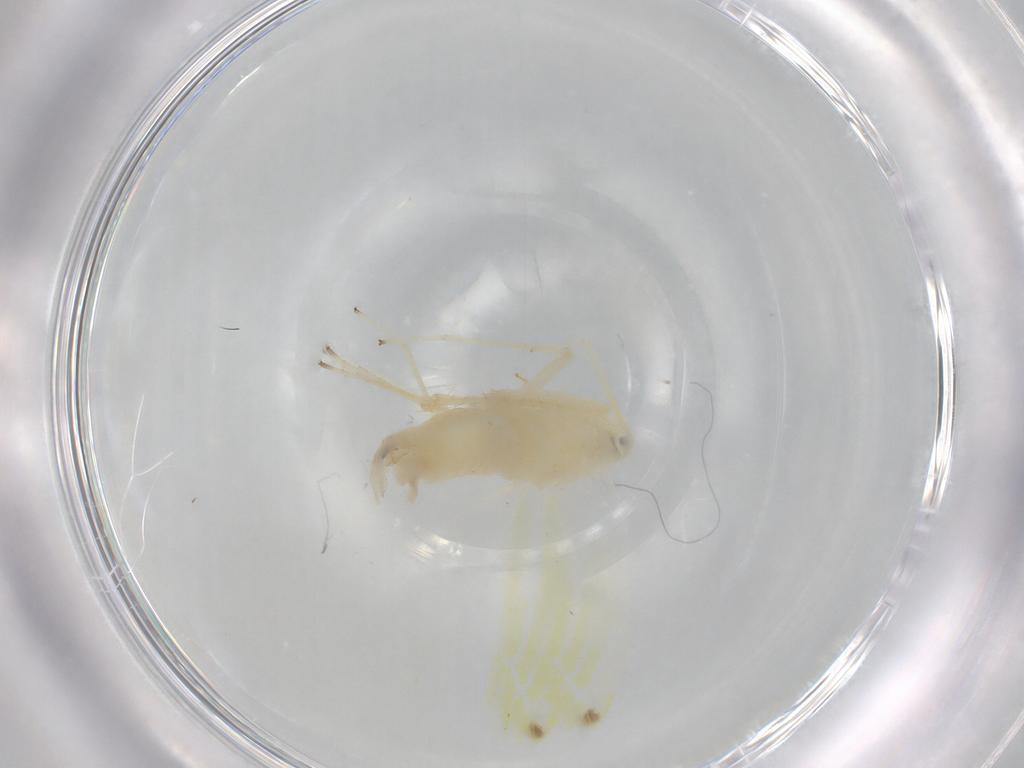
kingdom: Animalia
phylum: Arthropoda
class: Insecta
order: Hemiptera
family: Cicadellidae
